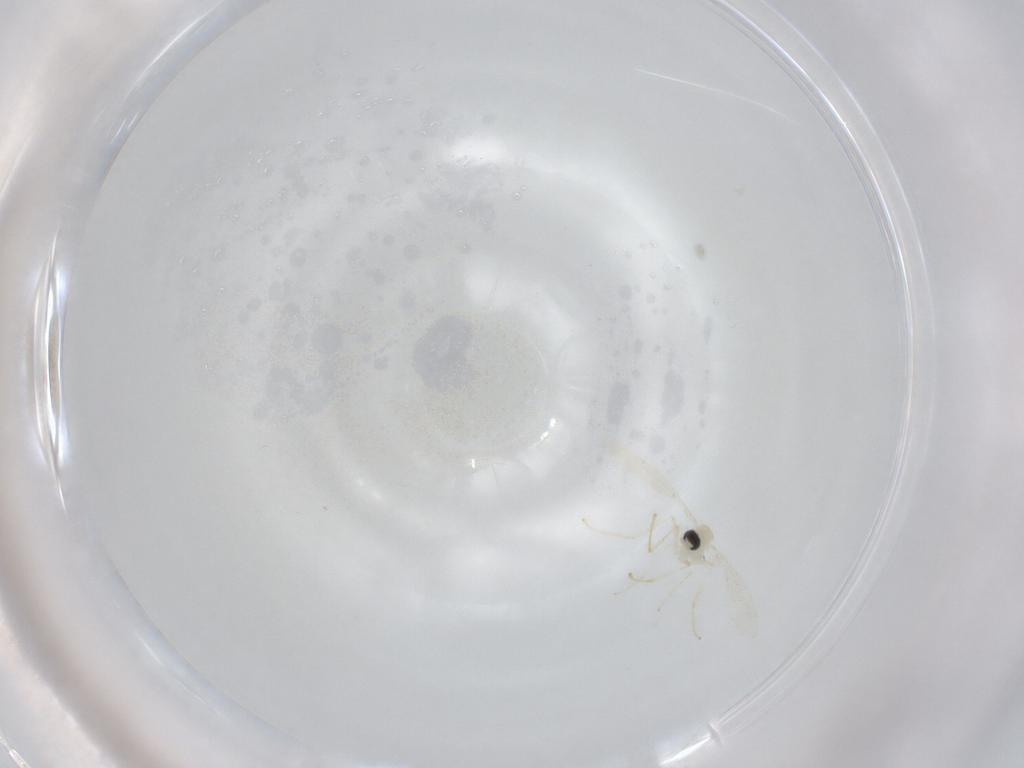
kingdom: Animalia
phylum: Arthropoda
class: Insecta
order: Diptera
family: Cecidomyiidae
